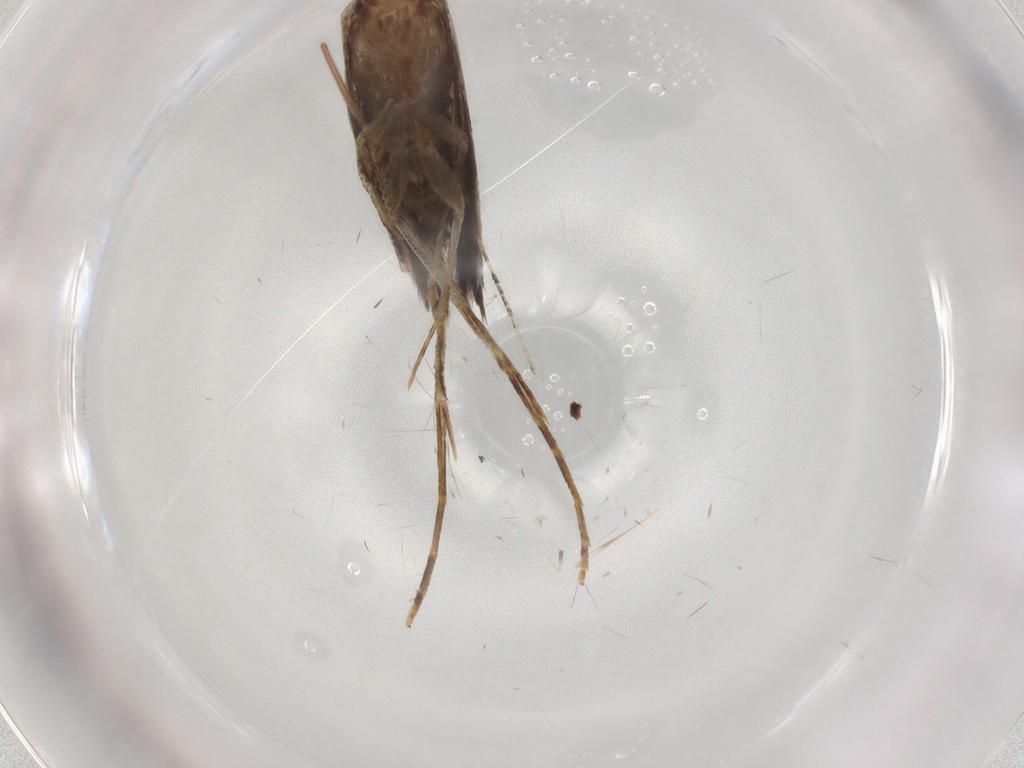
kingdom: Animalia
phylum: Arthropoda
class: Insecta
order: Lepidoptera
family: Cosmopterigidae
